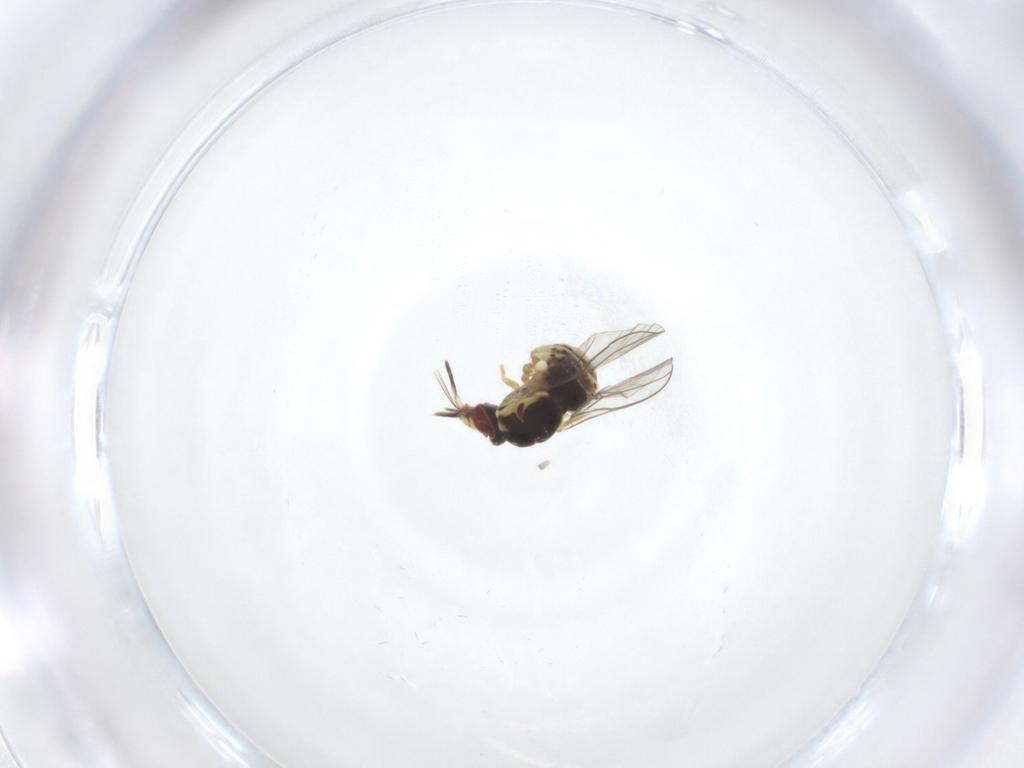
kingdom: Animalia
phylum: Arthropoda
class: Insecta
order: Diptera
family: Mythicomyiidae
